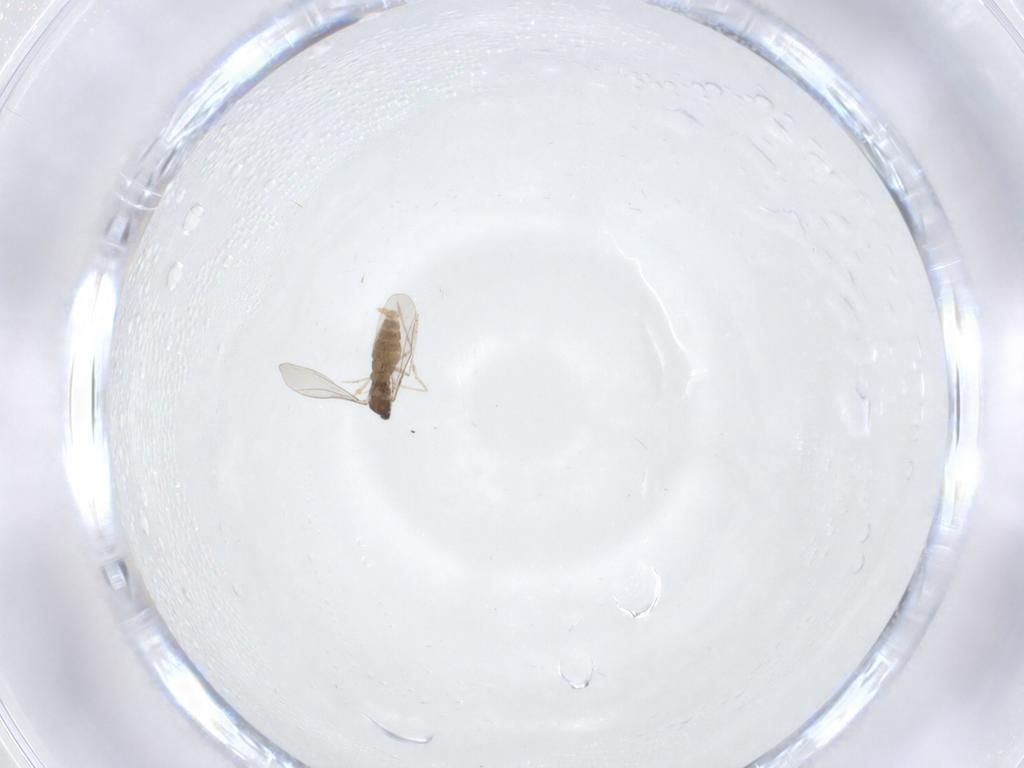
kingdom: Animalia
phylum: Arthropoda
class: Insecta
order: Diptera
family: Cecidomyiidae
